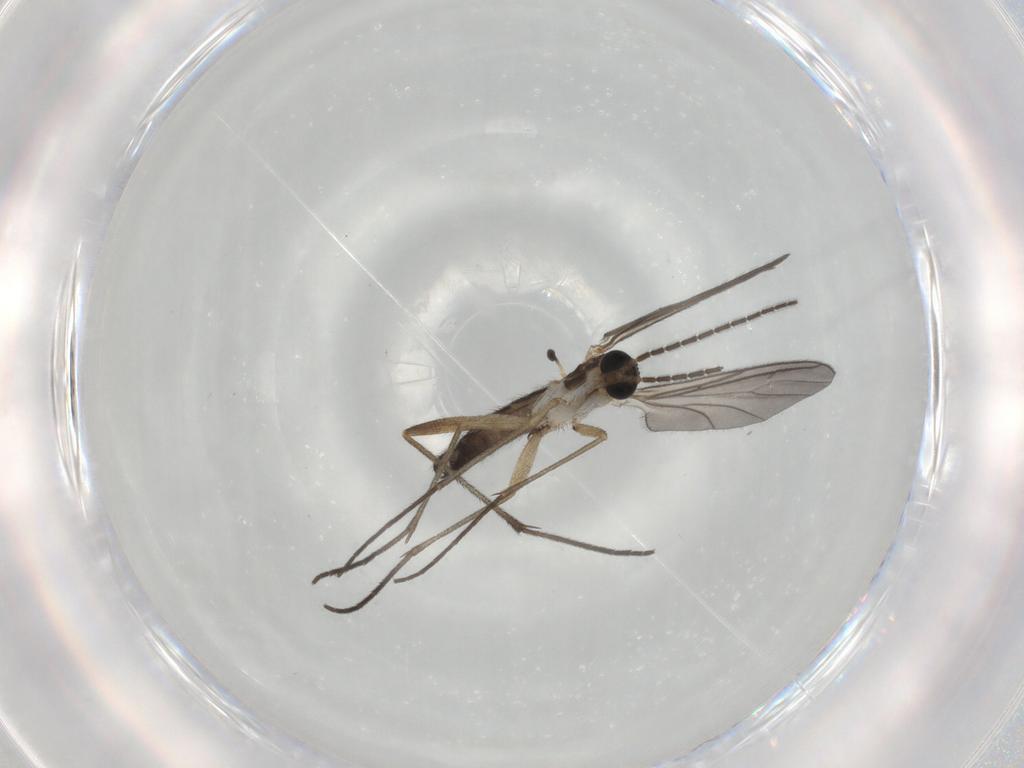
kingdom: Animalia
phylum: Arthropoda
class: Insecta
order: Diptera
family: Sciaridae
